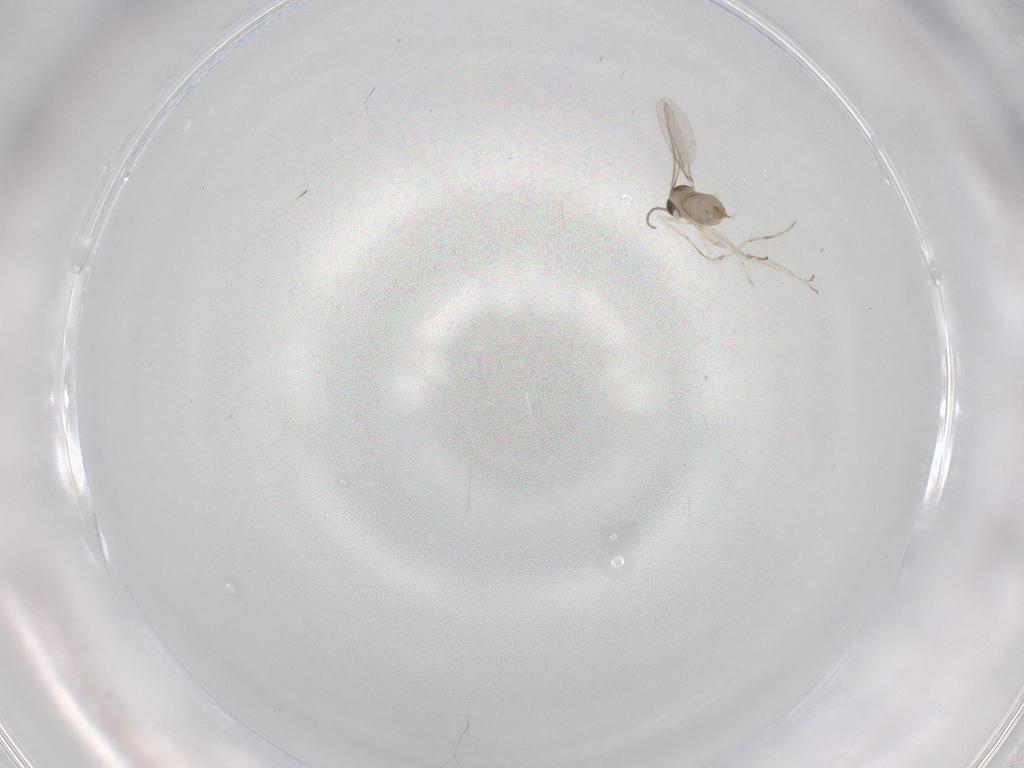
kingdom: Animalia
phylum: Arthropoda
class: Insecta
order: Diptera
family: Cecidomyiidae
